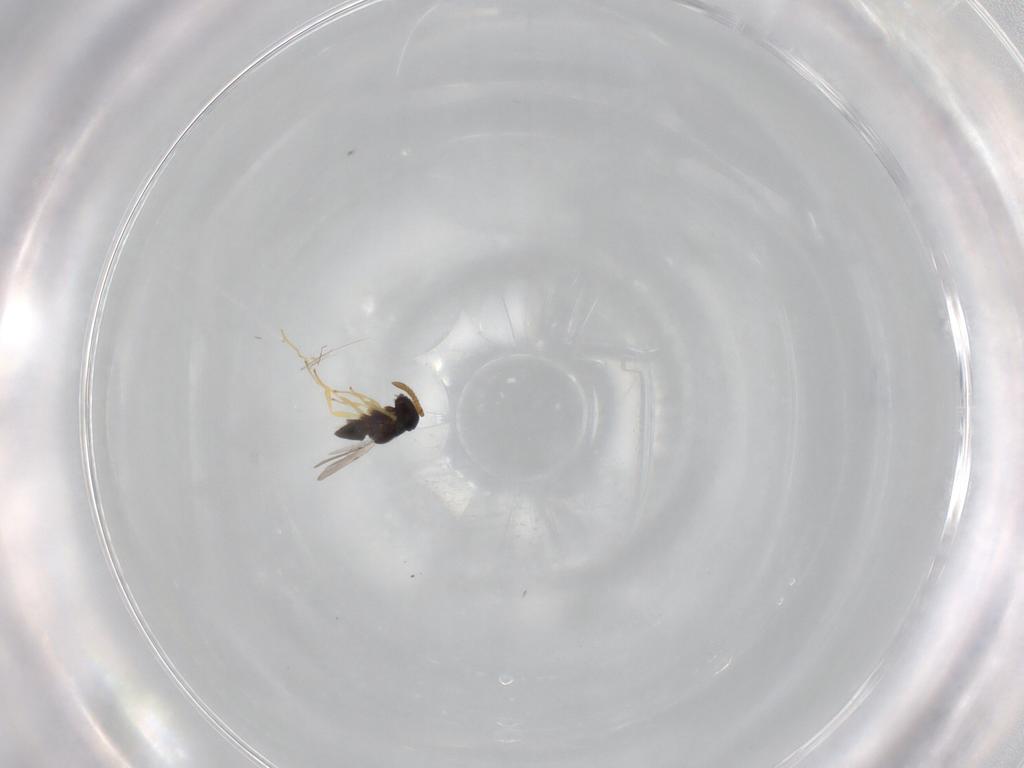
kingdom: Animalia
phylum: Arthropoda
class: Insecta
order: Hymenoptera
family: Encyrtidae
